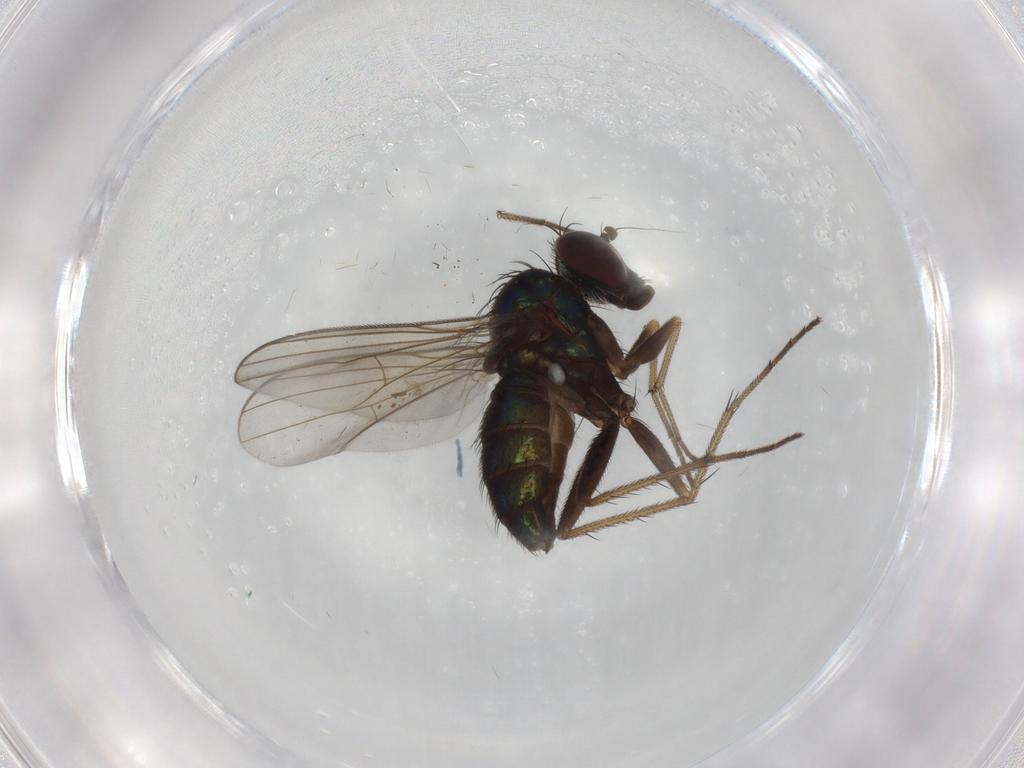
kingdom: Animalia
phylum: Arthropoda
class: Insecta
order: Diptera
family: Dolichopodidae
